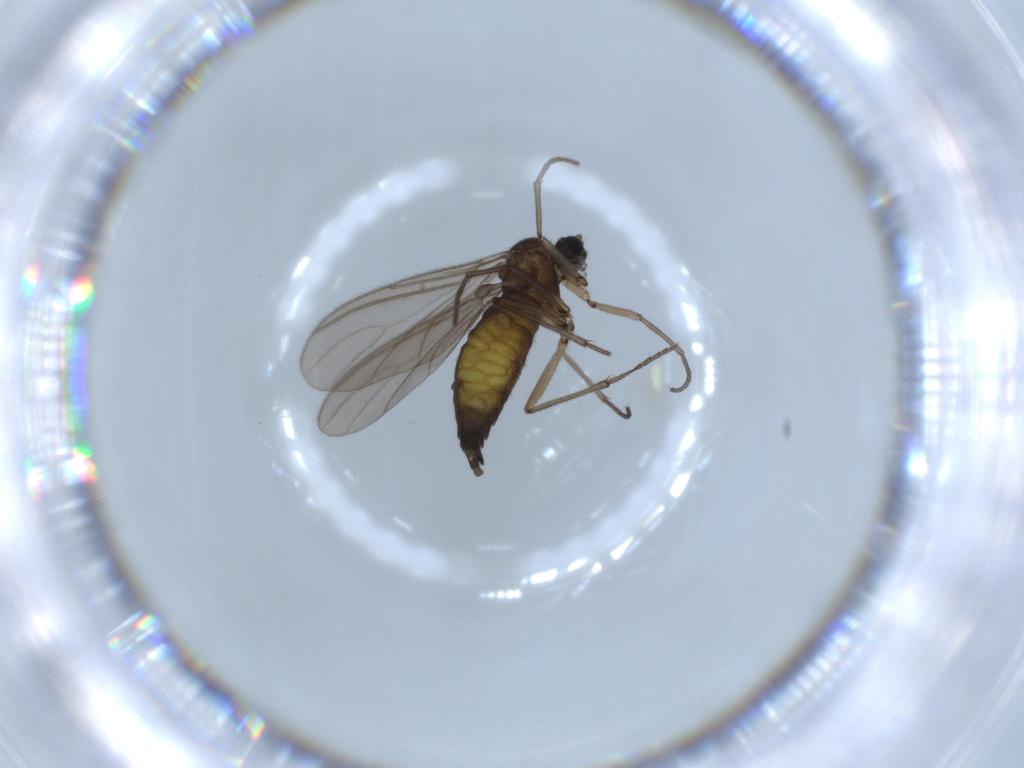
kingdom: Animalia
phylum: Arthropoda
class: Insecta
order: Diptera
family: Sciaridae
